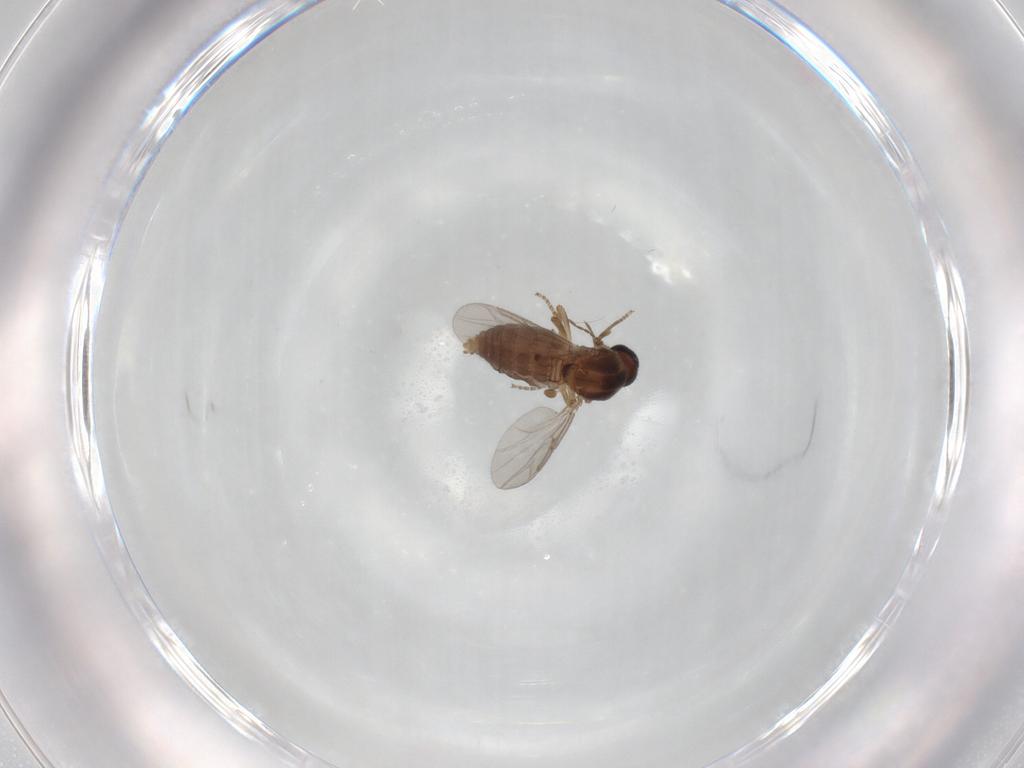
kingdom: Animalia
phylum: Arthropoda
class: Insecta
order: Diptera
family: Ceratopogonidae
